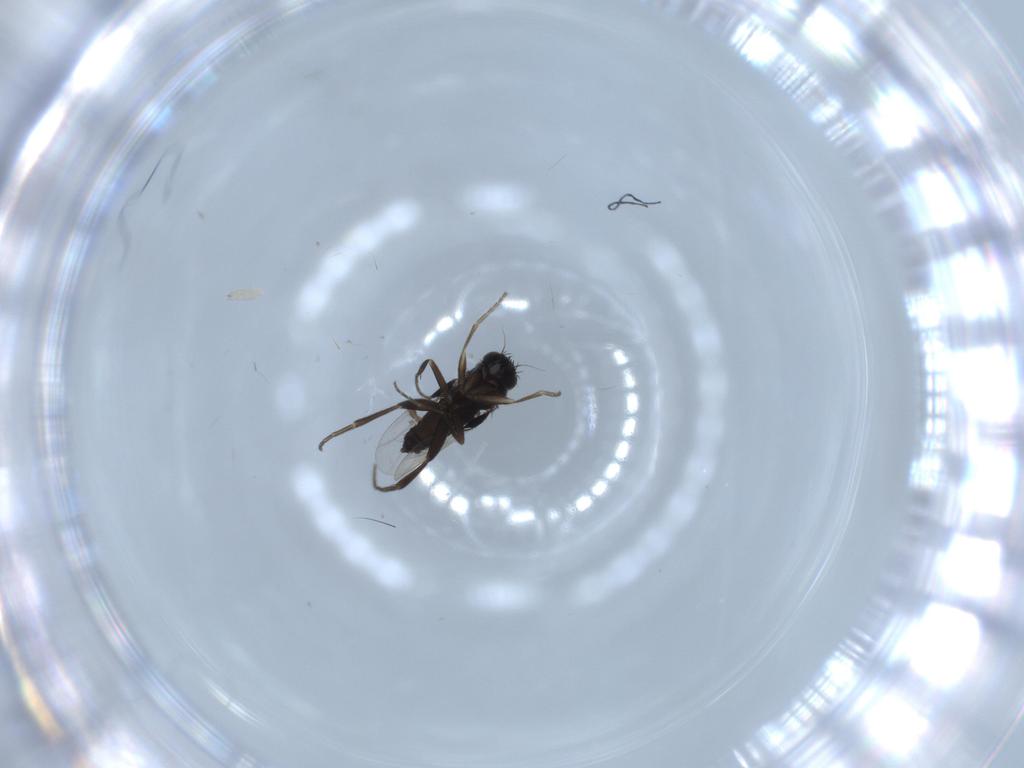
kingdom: Animalia
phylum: Arthropoda
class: Insecta
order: Diptera
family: Phoridae
